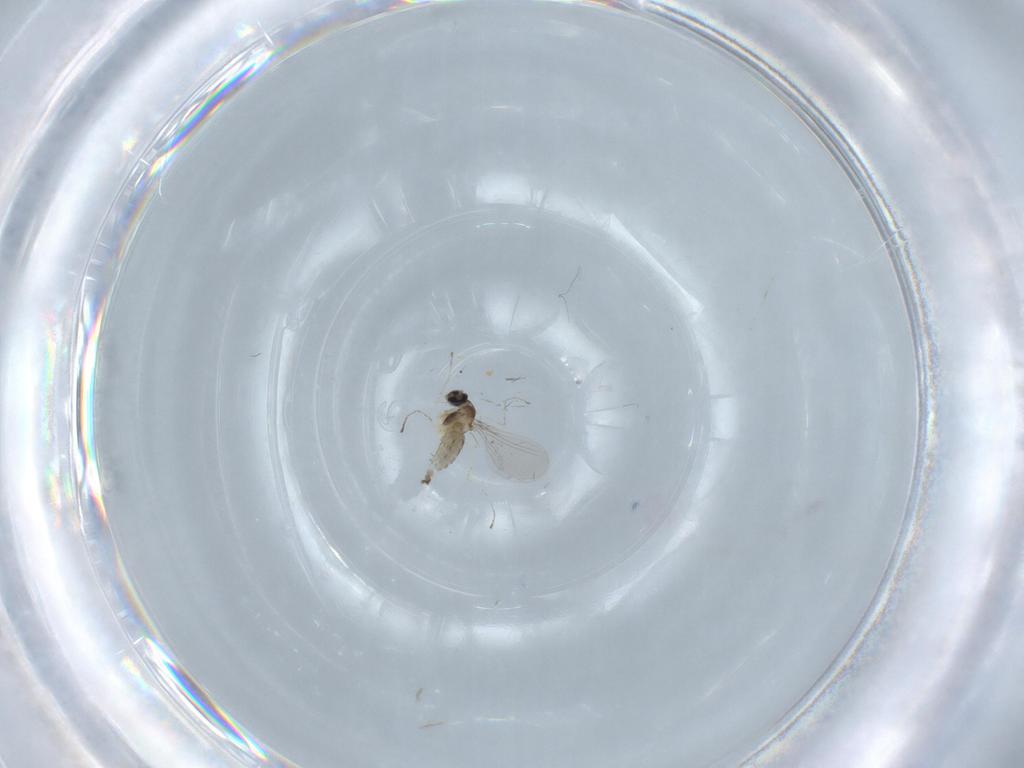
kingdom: Animalia
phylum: Arthropoda
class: Insecta
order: Diptera
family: Cecidomyiidae
